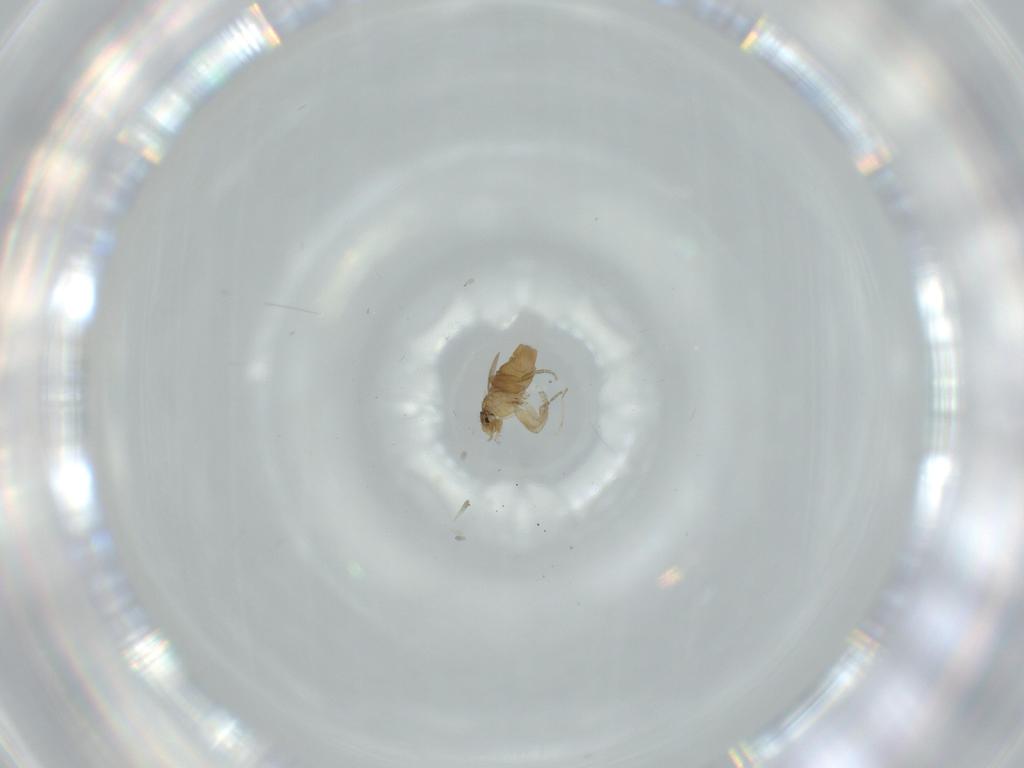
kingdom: Animalia
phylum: Arthropoda
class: Insecta
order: Diptera
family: Phoridae
